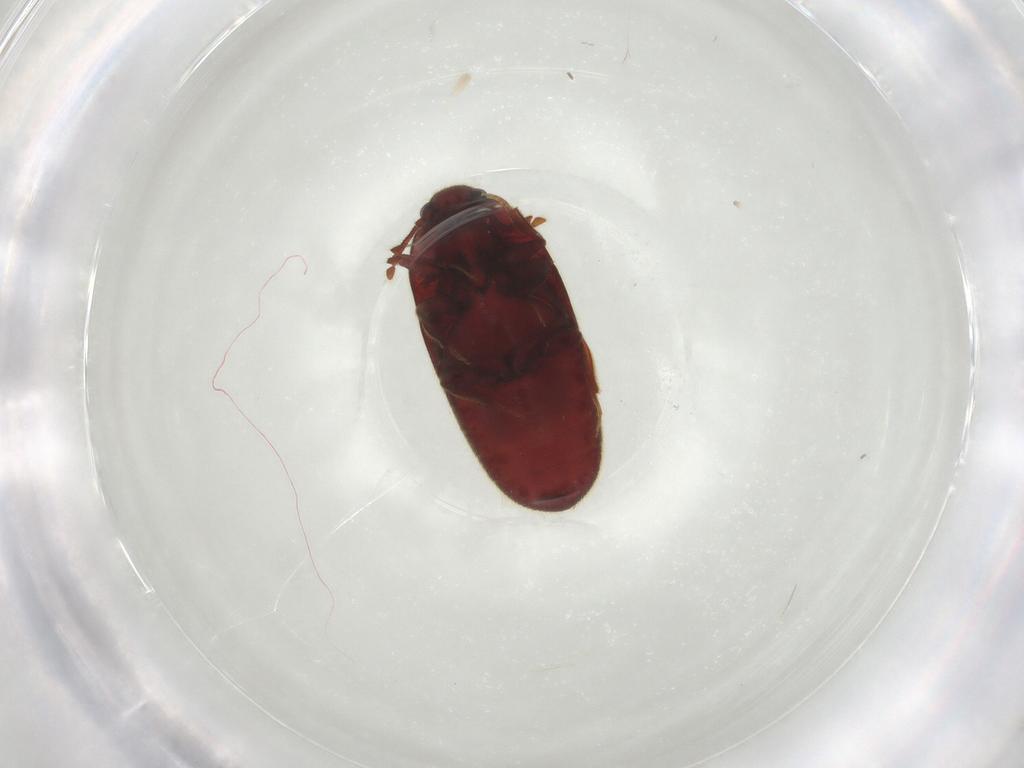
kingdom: Animalia
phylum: Arthropoda
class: Insecta
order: Coleoptera
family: Throscidae
